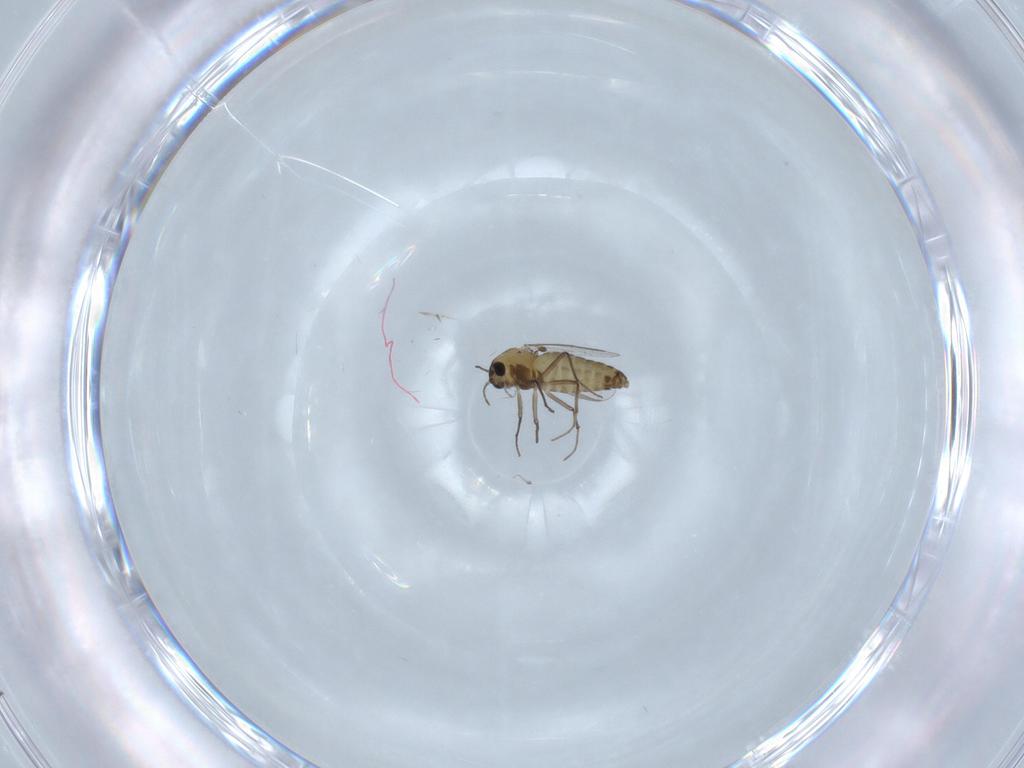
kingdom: Animalia
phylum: Arthropoda
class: Insecta
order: Diptera
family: Chironomidae
